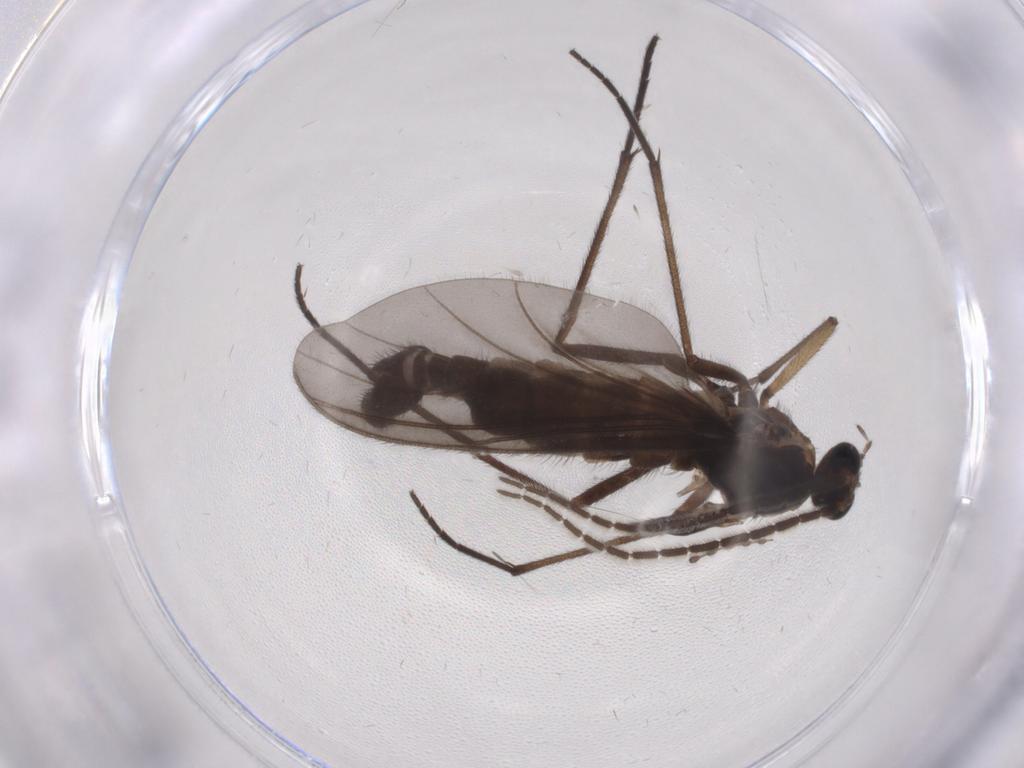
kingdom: Animalia
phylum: Arthropoda
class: Insecta
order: Diptera
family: Sciaridae
